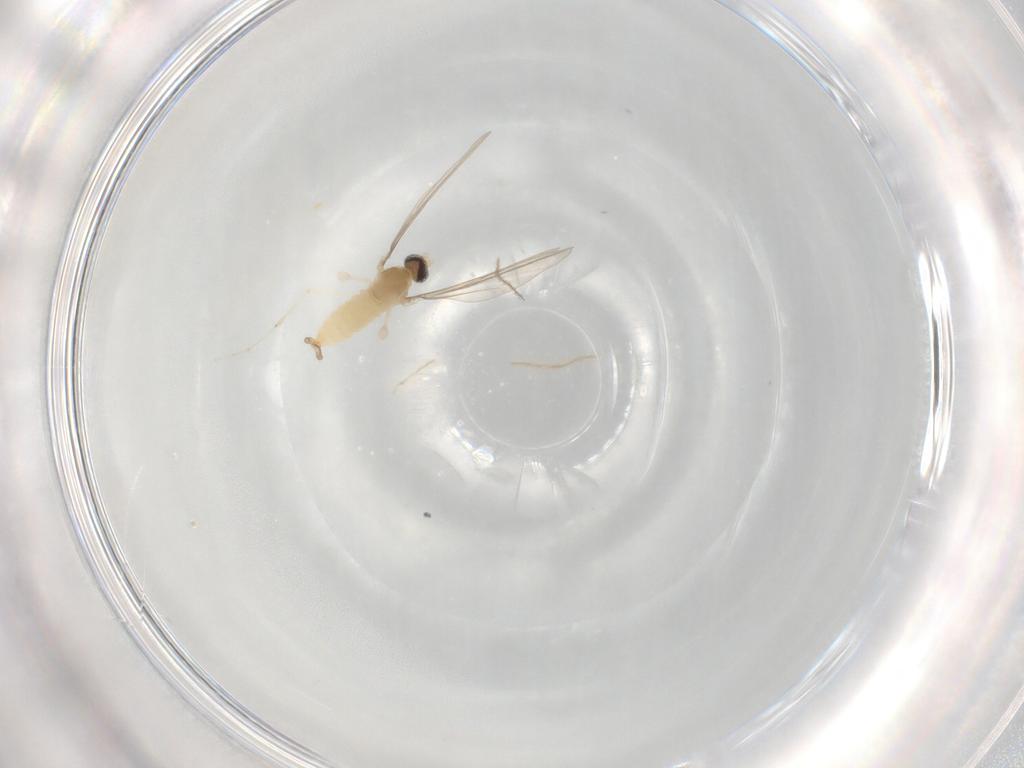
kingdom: Animalia
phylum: Arthropoda
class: Insecta
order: Diptera
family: Cecidomyiidae
